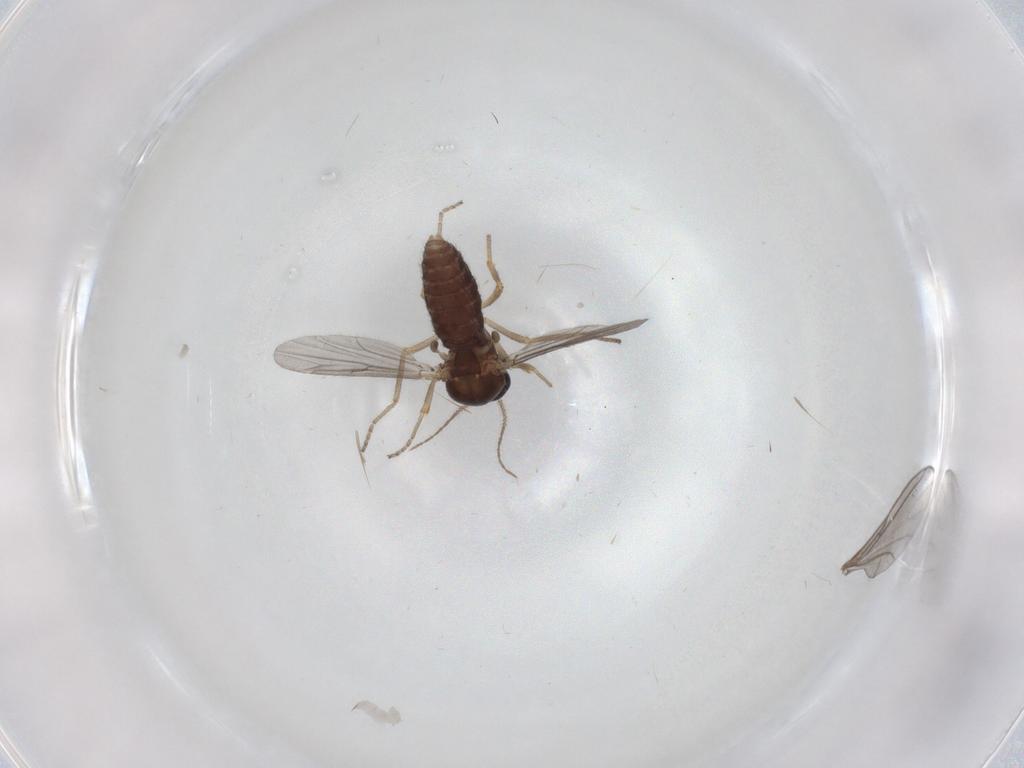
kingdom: Animalia
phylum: Arthropoda
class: Insecta
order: Diptera
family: Ceratopogonidae
